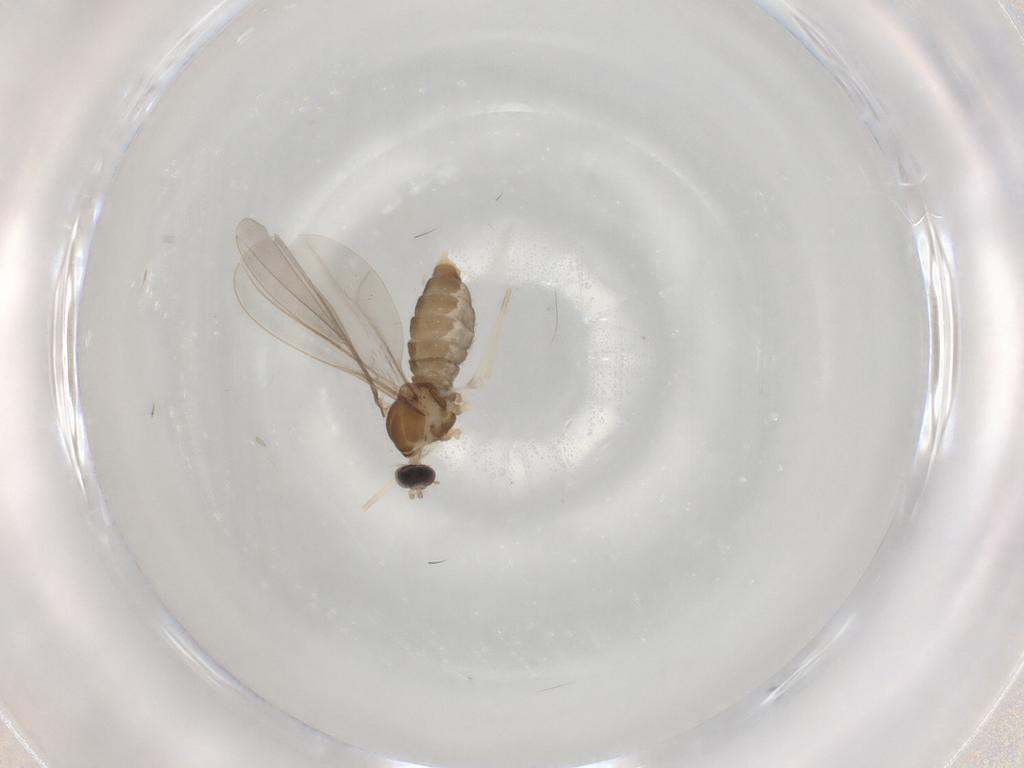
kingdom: Animalia
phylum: Arthropoda
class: Insecta
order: Diptera
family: Cecidomyiidae
